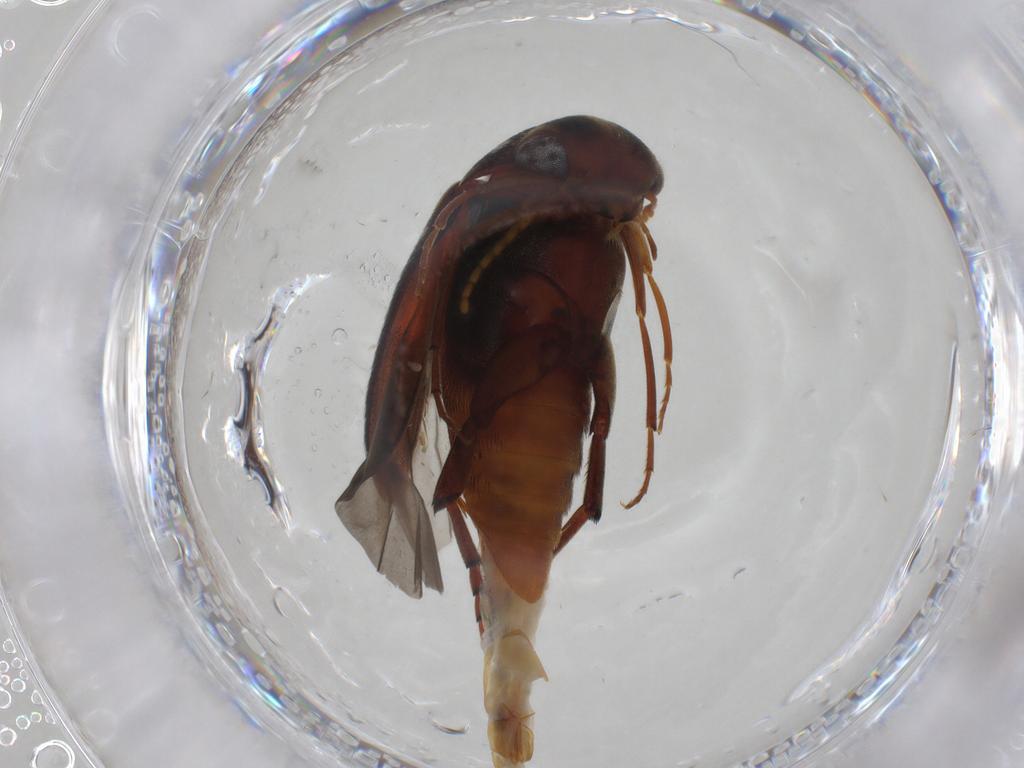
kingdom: Animalia
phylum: Arthropoda
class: Insecta
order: Coleoptera
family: Mordellidae
